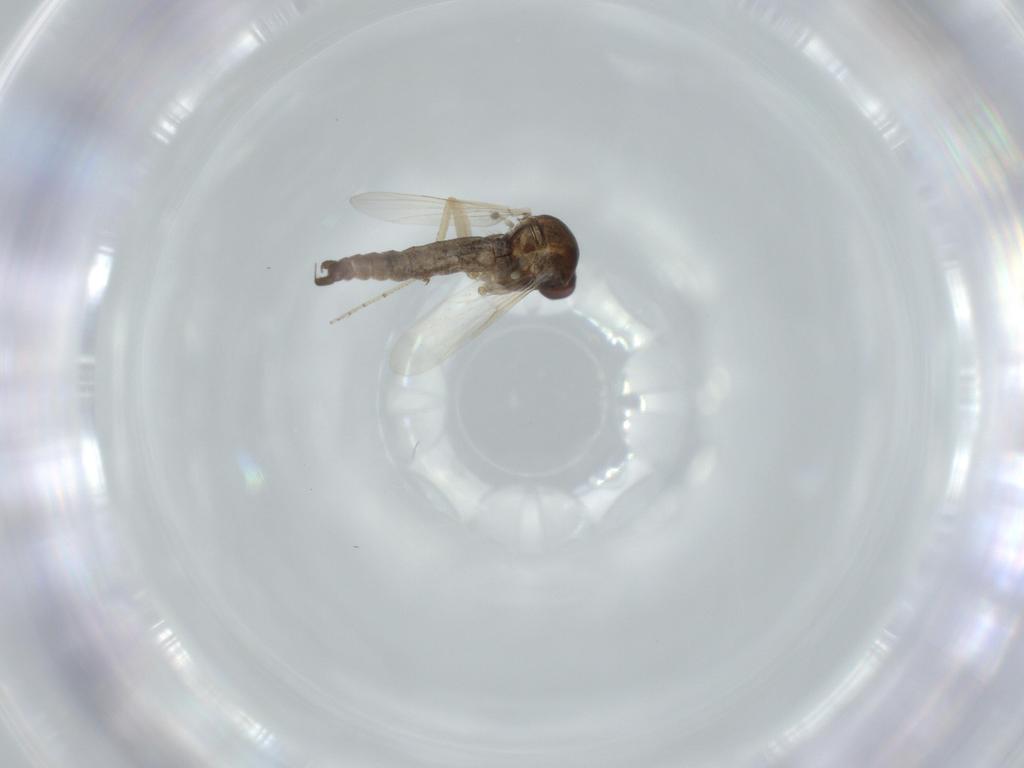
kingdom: Animalia
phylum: Arthropoda
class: Insecta
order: Diptera
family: Ceratopogonidae
